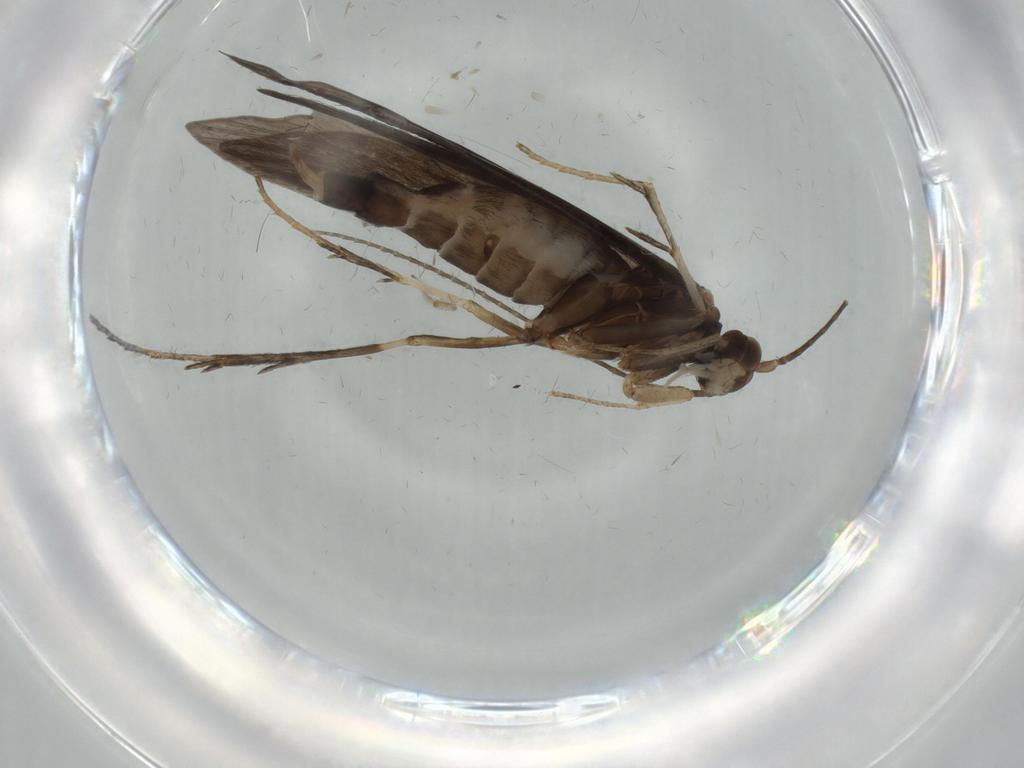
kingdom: Animalia
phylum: Arthropoda
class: Insecta
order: Trichoptera
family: Xiphocentronidae
